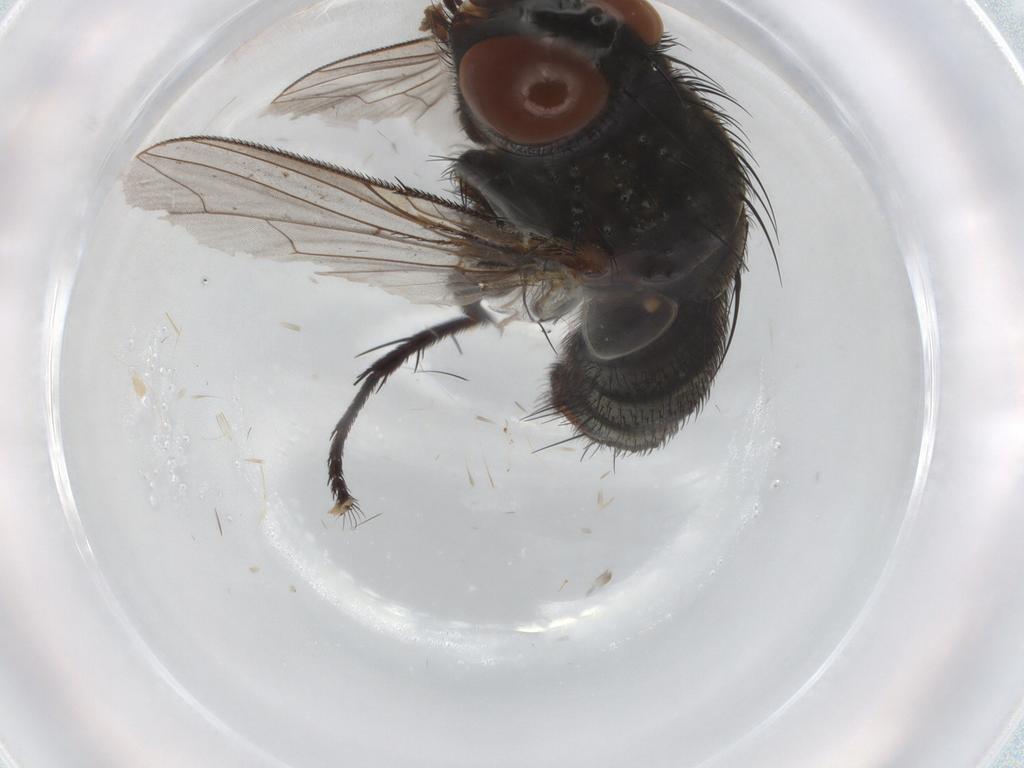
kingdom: Animalia
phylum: Arthropoda
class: Insecta
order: Diptera
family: Sarcophagidae
